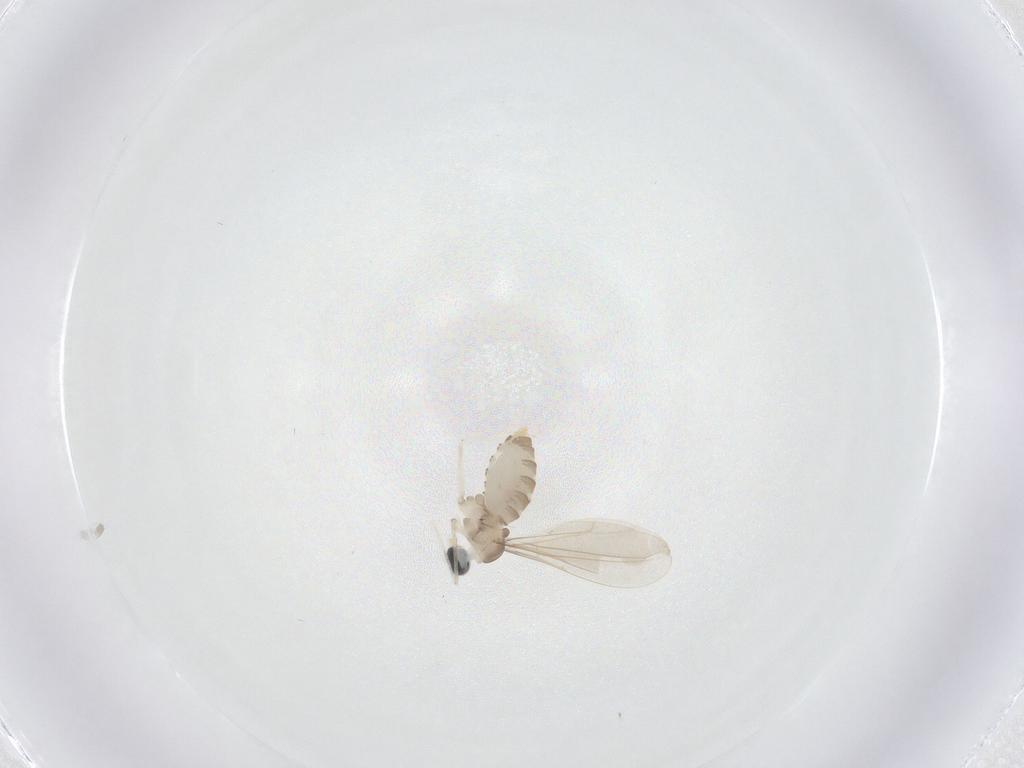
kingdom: Animalia
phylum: Arthropoda
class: Insecta
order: Diptera
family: Cecidomyiidae
